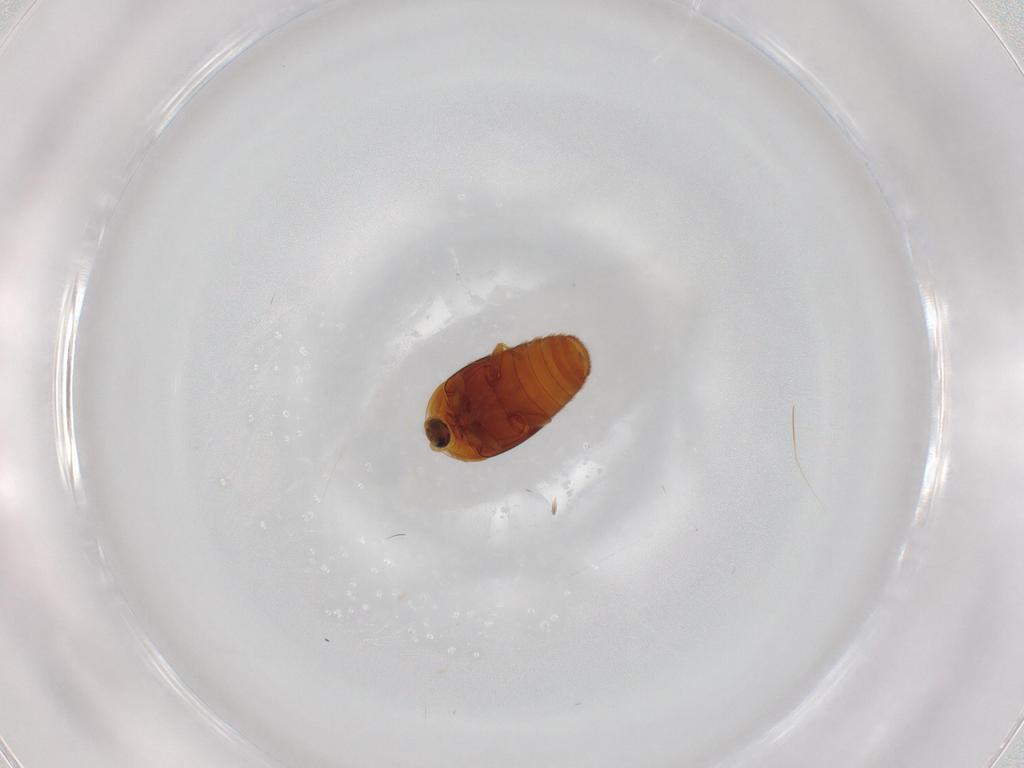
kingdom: Animalia
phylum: Arthropoda
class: Insecta
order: Coleoptera
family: Corylophidae
